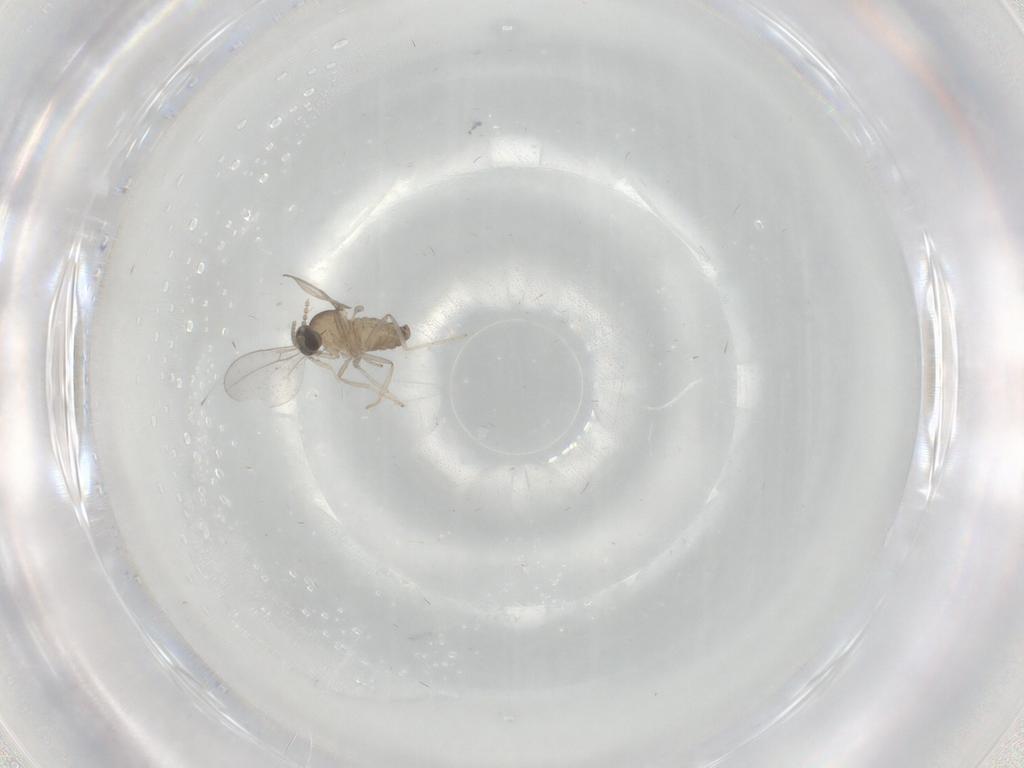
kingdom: Animalia
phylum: Arthropoda
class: Insecta
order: Diptera
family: Cecidomyiidae
